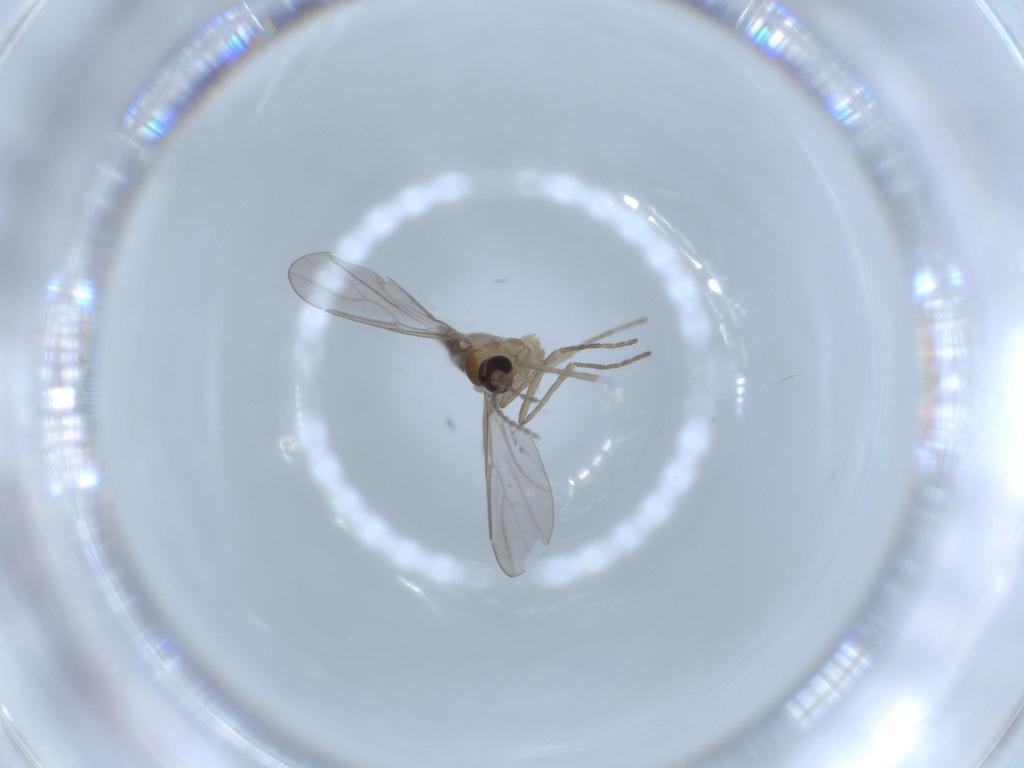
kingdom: Animalia
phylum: Arthropoda
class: Insecta
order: Diptera
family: Cecidomyiidae
